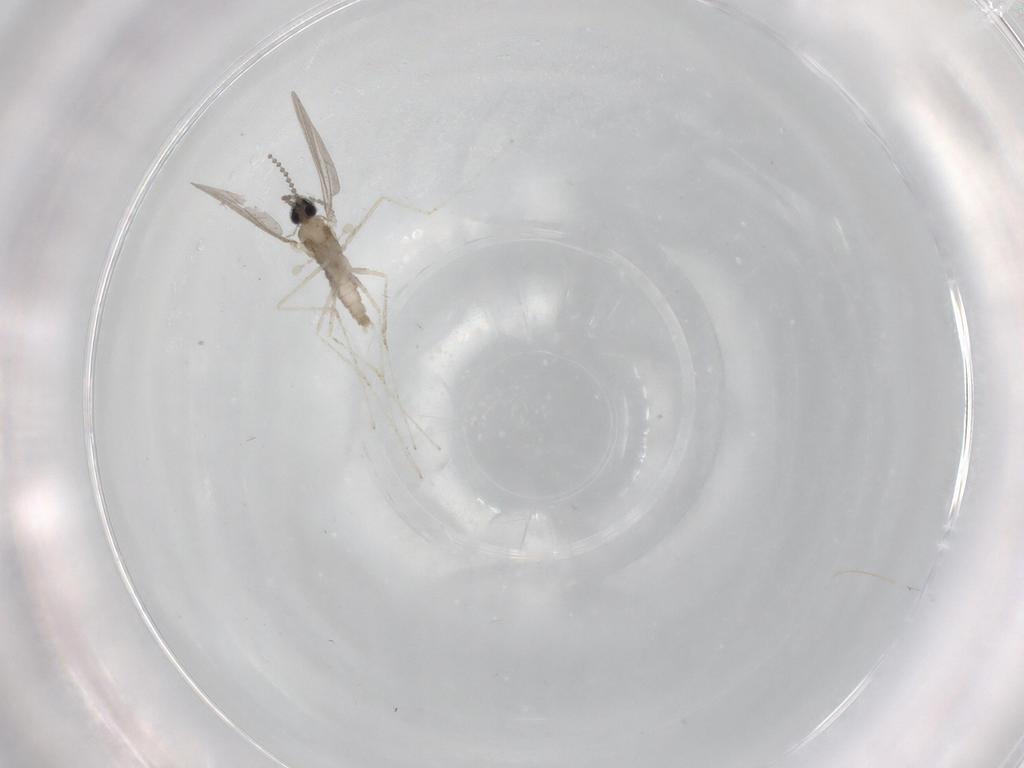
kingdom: Animalia
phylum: Arthropoda
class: Insecta
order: Diptera
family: Cecidomyiidae
